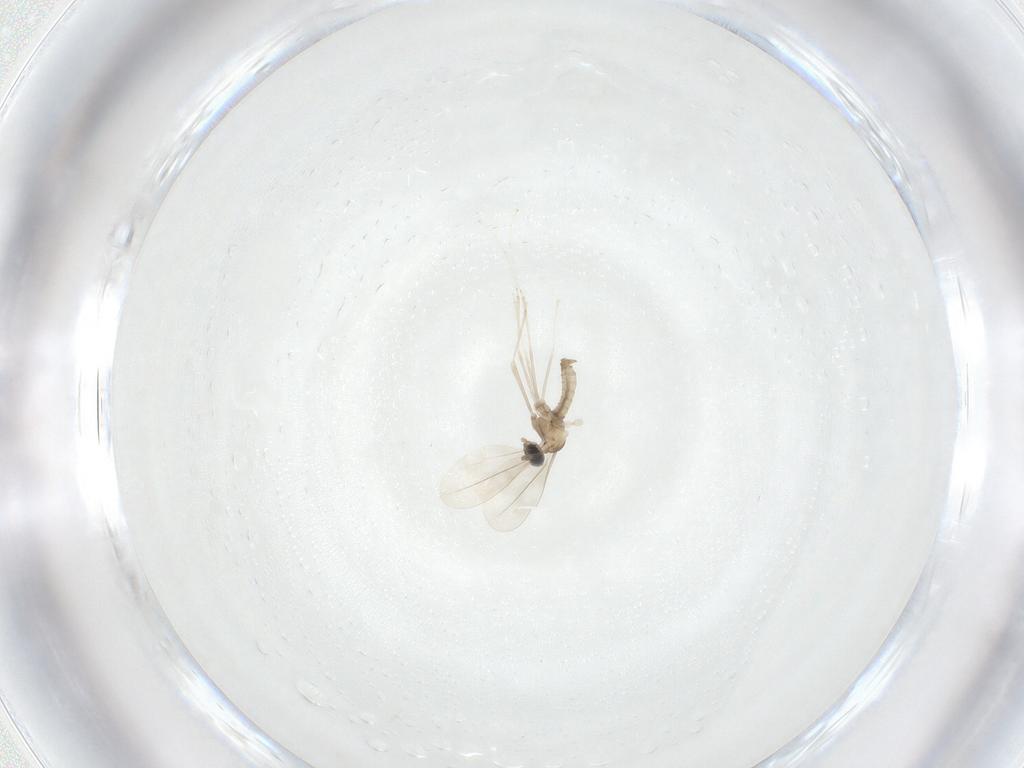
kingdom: Animalia
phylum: Arthropoda
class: Insecta
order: Diptera
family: Cecidomyiidae
